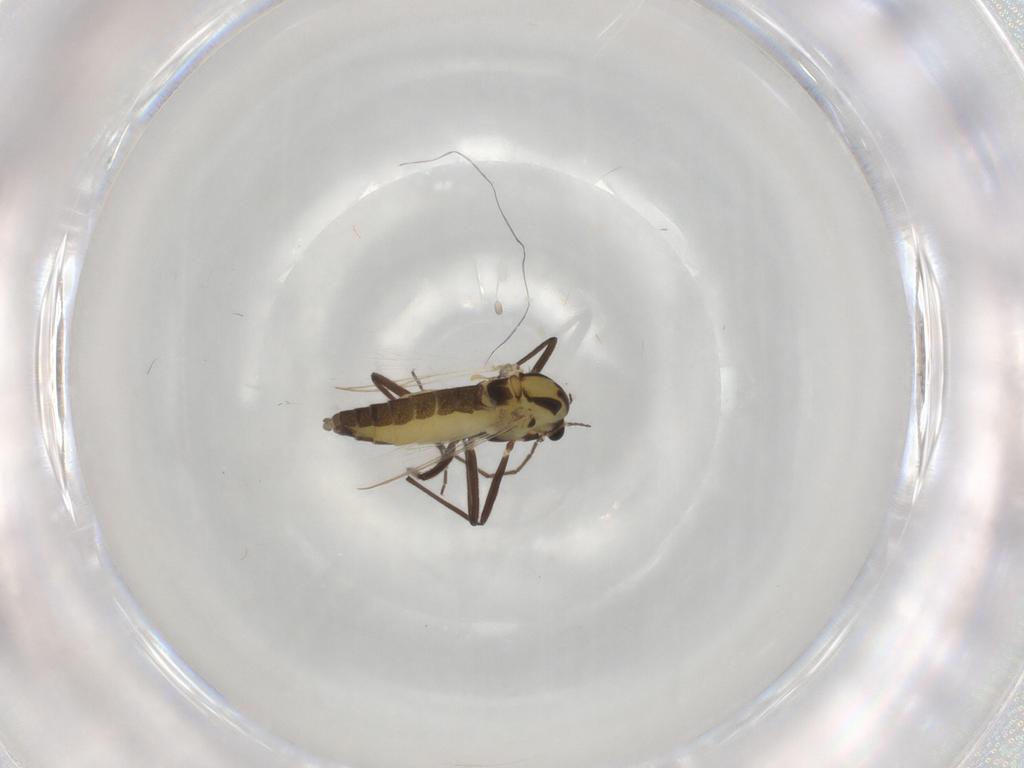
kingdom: Animalia
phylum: Arthropoda
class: Insecta
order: Diptera
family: Chironomidae
